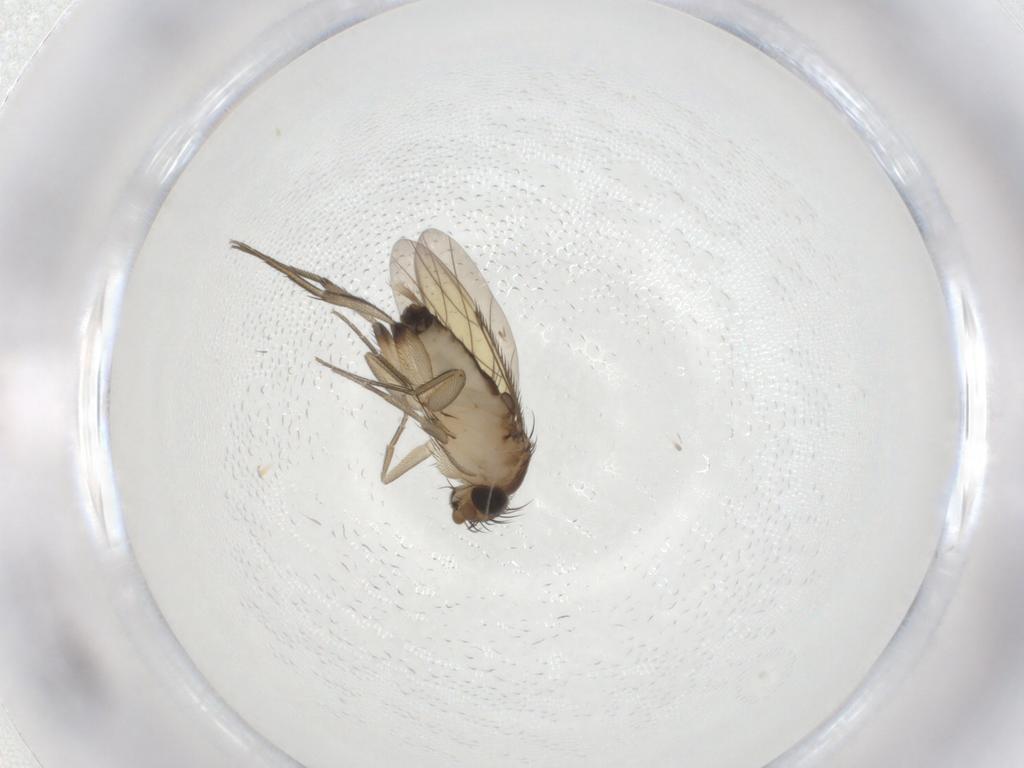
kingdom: Animalia
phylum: Arthropoda
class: Insecta
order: Diptera
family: Phoridae
